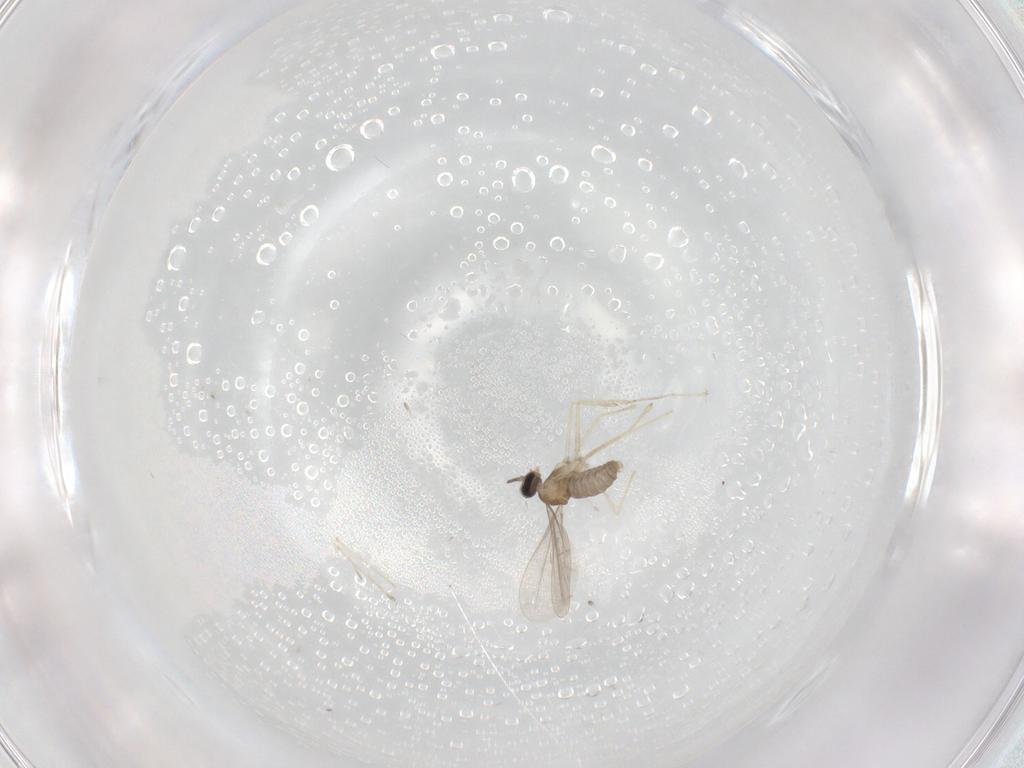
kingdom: Animalia
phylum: Arthropoda
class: Insecta
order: Diptera
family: Cecidomyiidae
